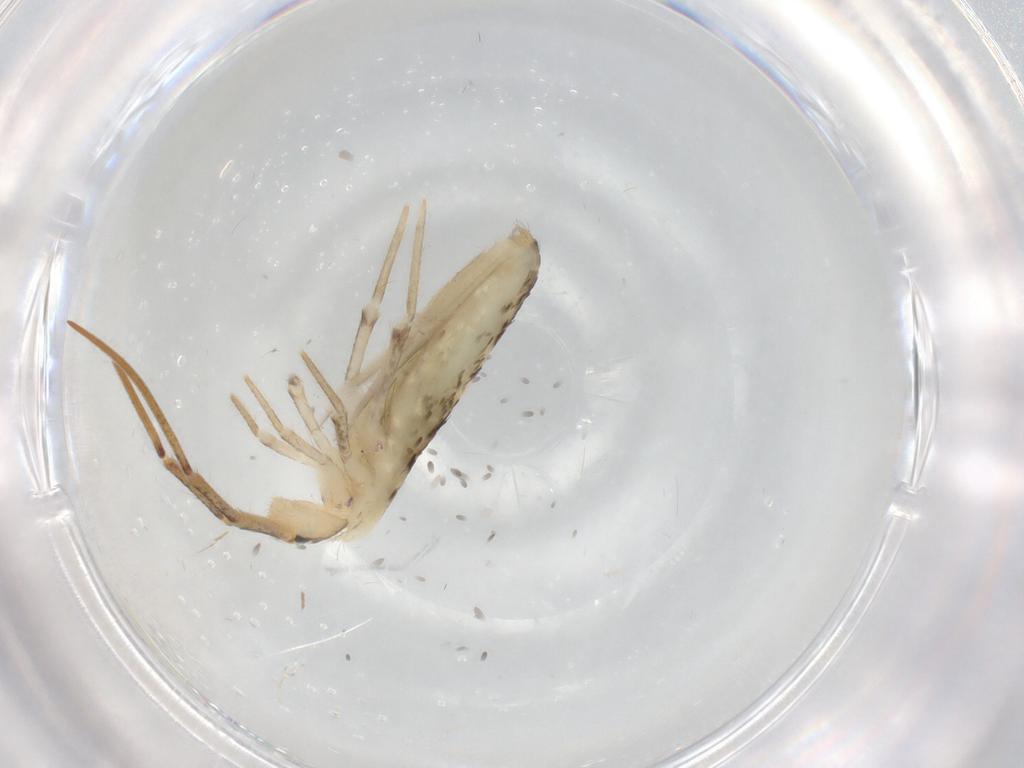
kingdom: Animalia
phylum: Arthropoda
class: Collembola
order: Poduromorpha
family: Hypogastruridae
